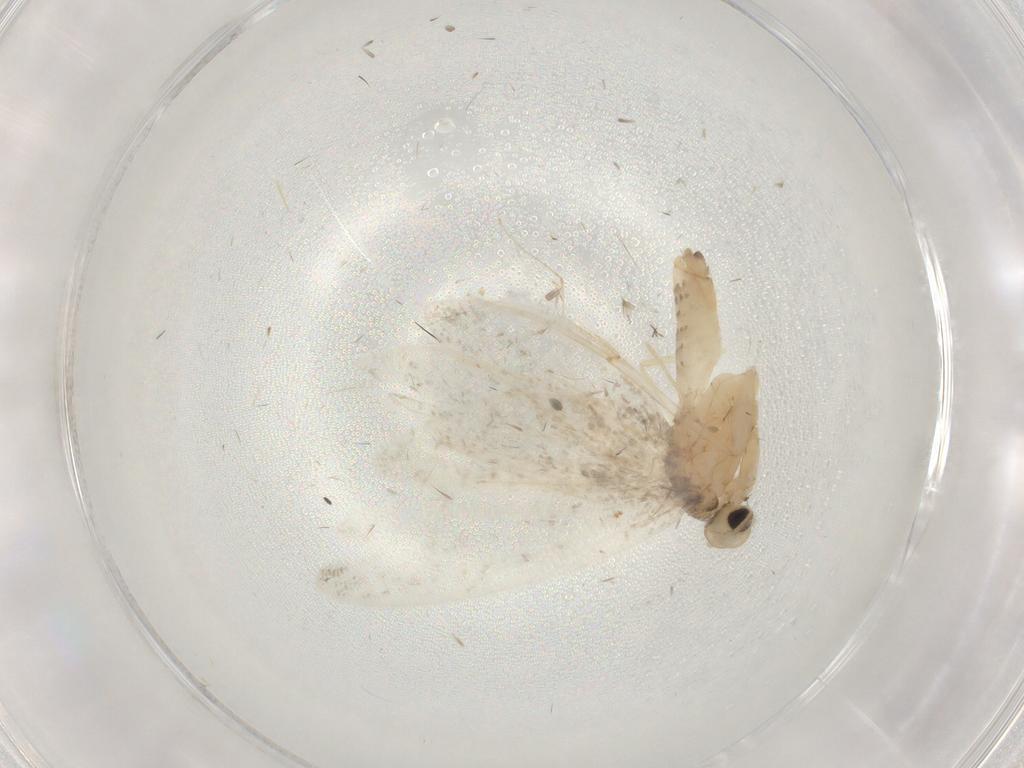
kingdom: Animalia
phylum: Arthropoda
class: Insecta
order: Lepidoptera
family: Psychidae
